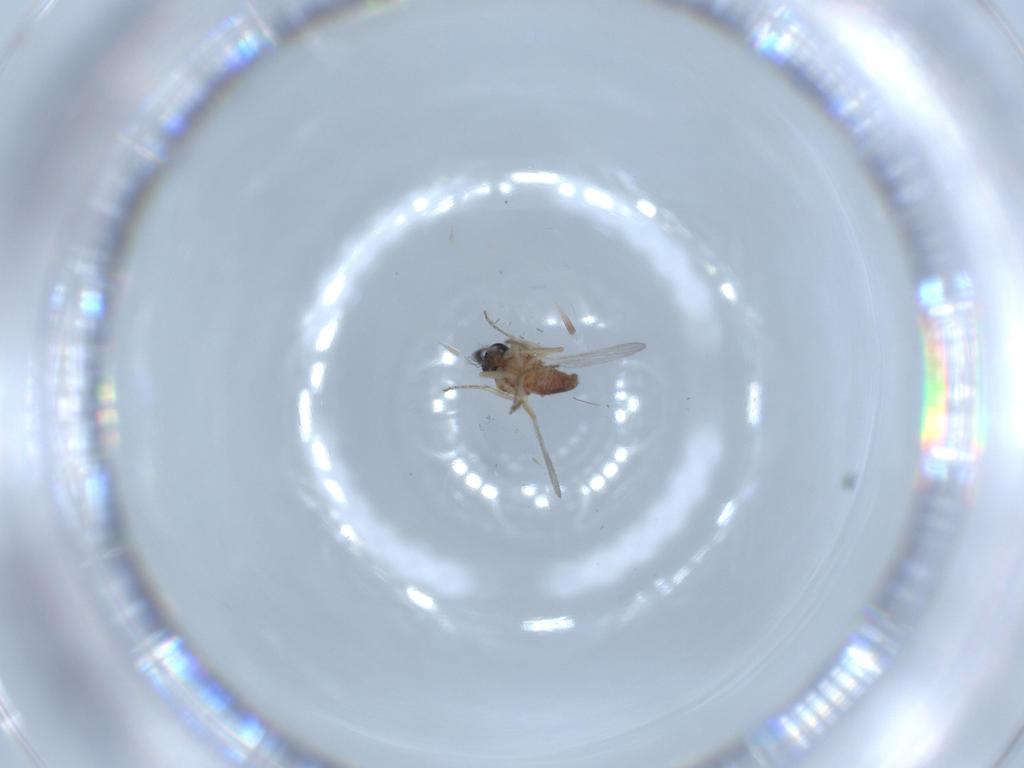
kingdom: Animalia
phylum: Arthropoda
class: Insecta
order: Diptera
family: Ceratopogonidae
